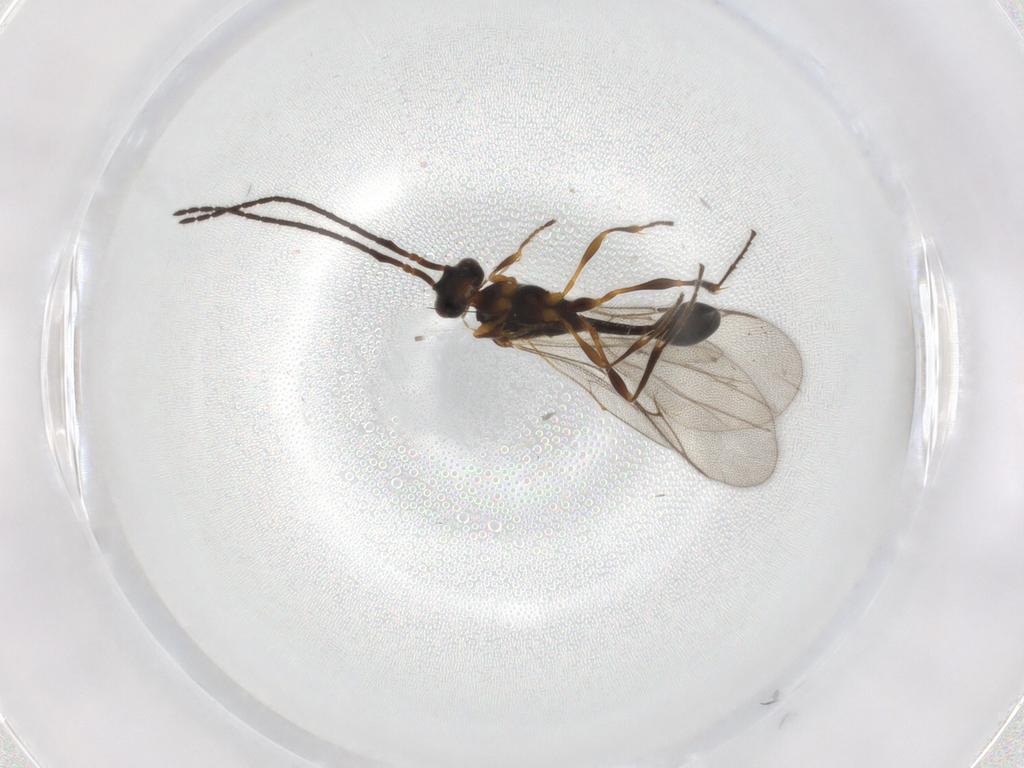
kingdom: Animalia
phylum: Arthropoda
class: Insecta
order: Hymenoptera
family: Diapriidae
